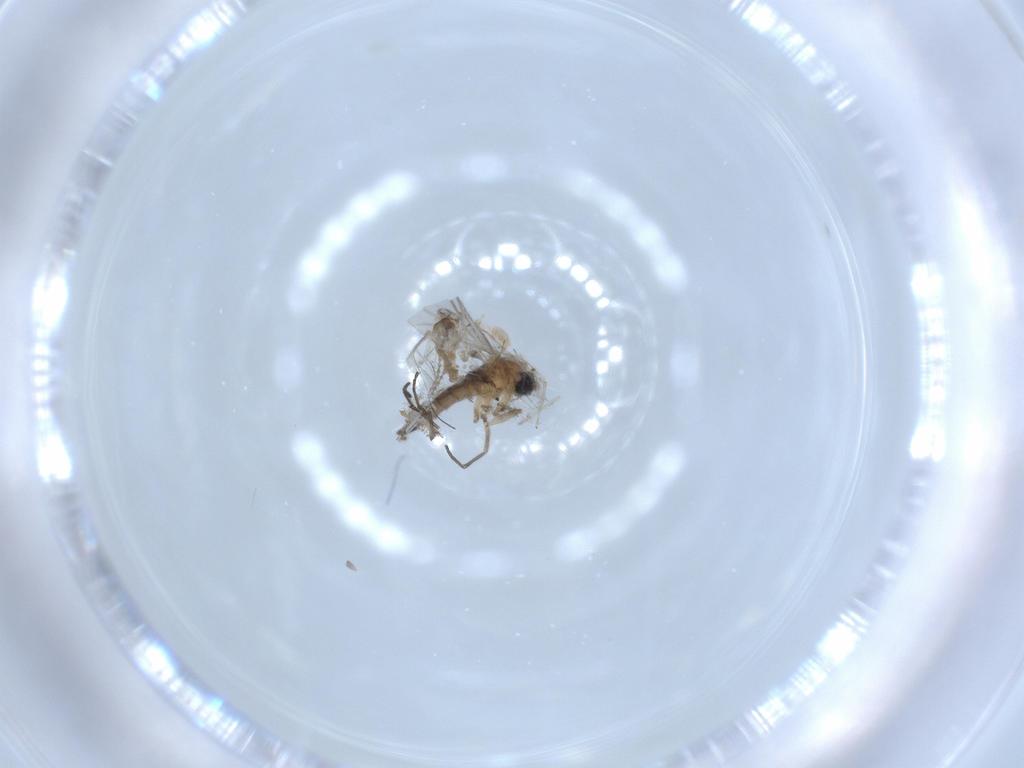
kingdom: Animalia
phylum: Arthropoda
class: Insecta
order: Diptera
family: Sciaridae
